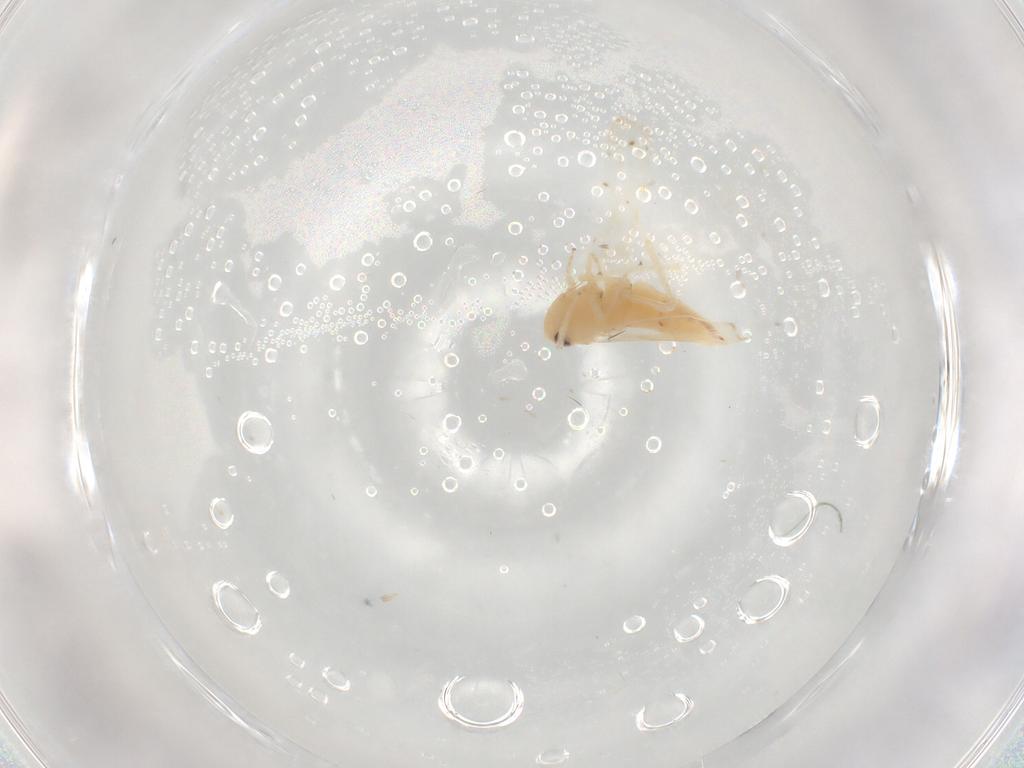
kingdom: Animalia
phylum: Arthropoda
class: Insecta
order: Hemiptera
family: Cicadellidae
